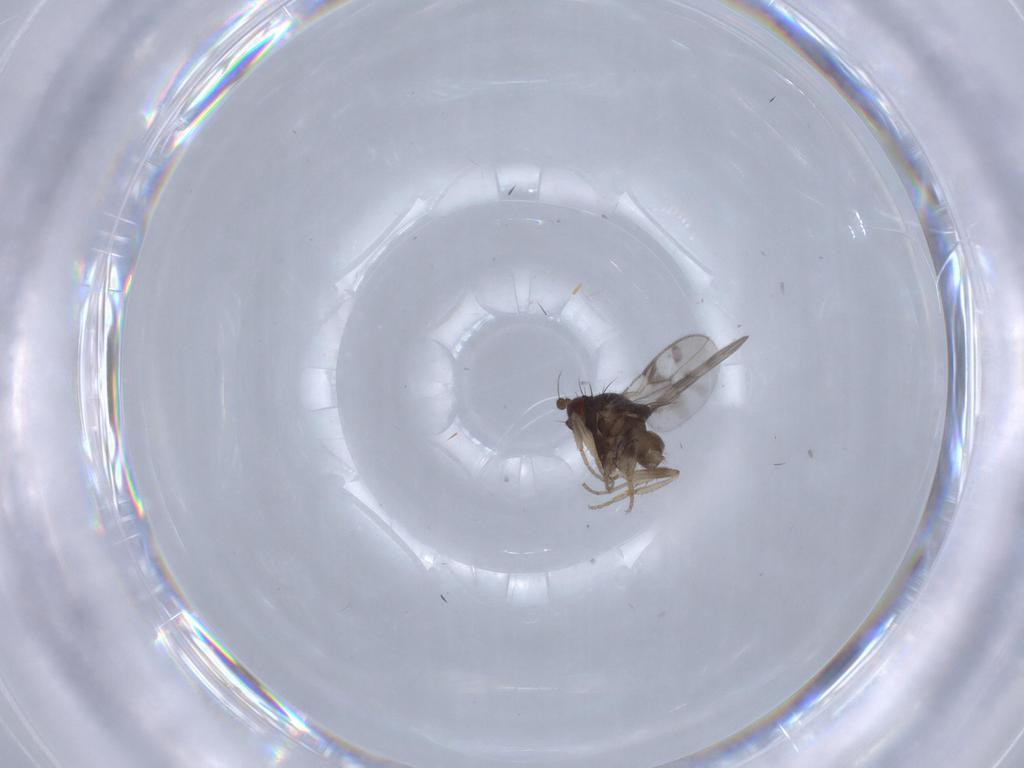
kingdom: Animalia
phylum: Arthropoda
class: Insecta
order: Diptera
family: Sphaeroceridae
